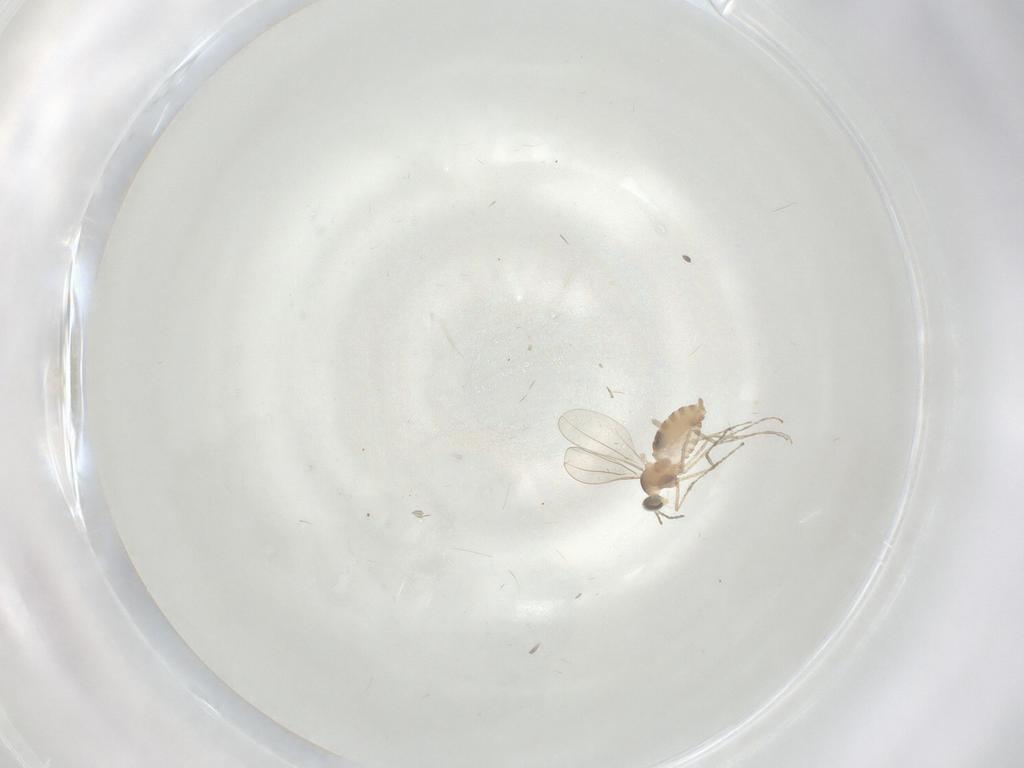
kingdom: Animalia
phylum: Arthropoda
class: Insecta
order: Diptera
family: Cecidomyiidae
